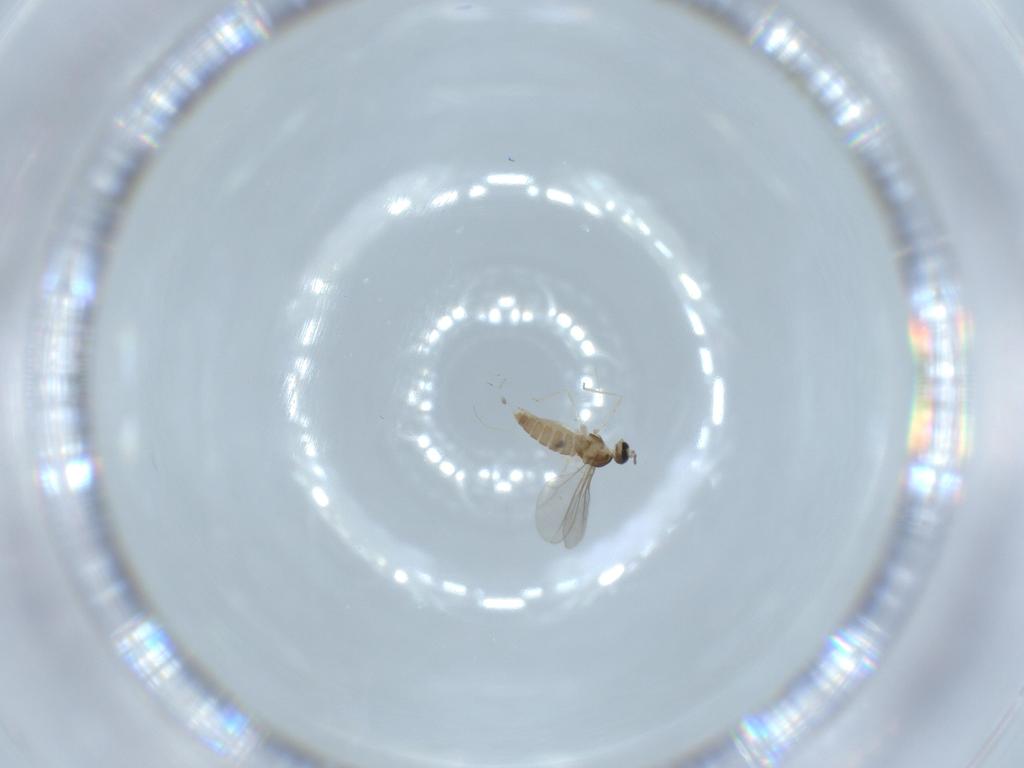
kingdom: Animalia
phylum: Arthropoda
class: Insecta
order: Diptera
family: Cecidomyiidae
